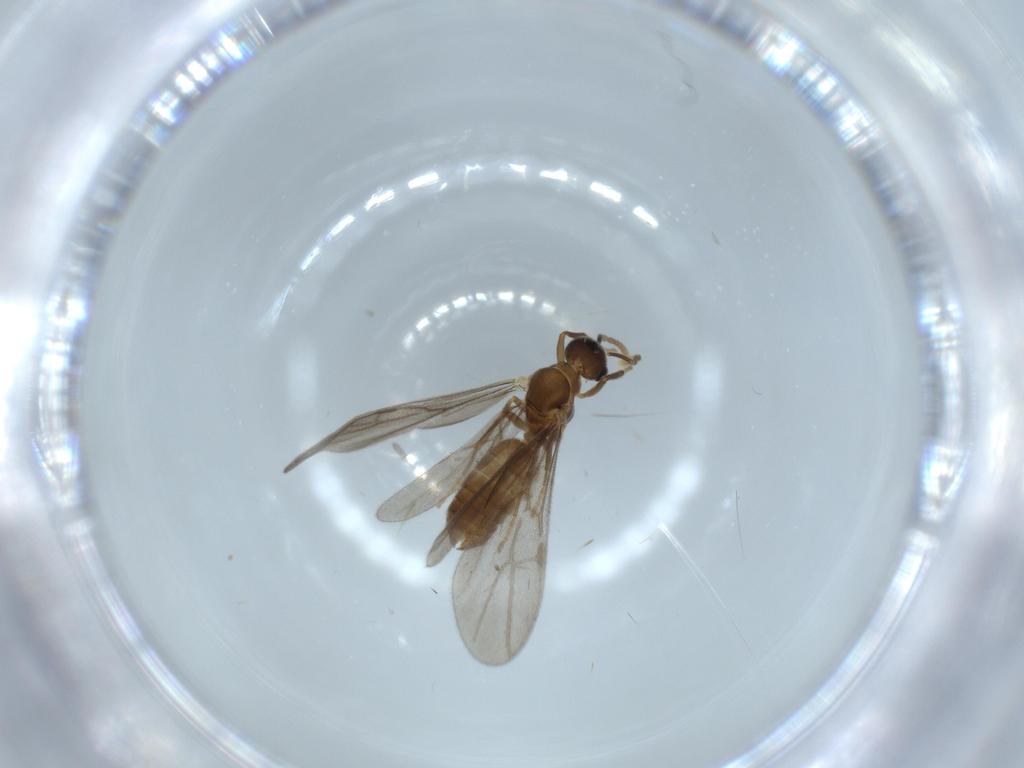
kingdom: Animalia
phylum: Arthropoda
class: Insecta
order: Hymenoptera
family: Formicidae
